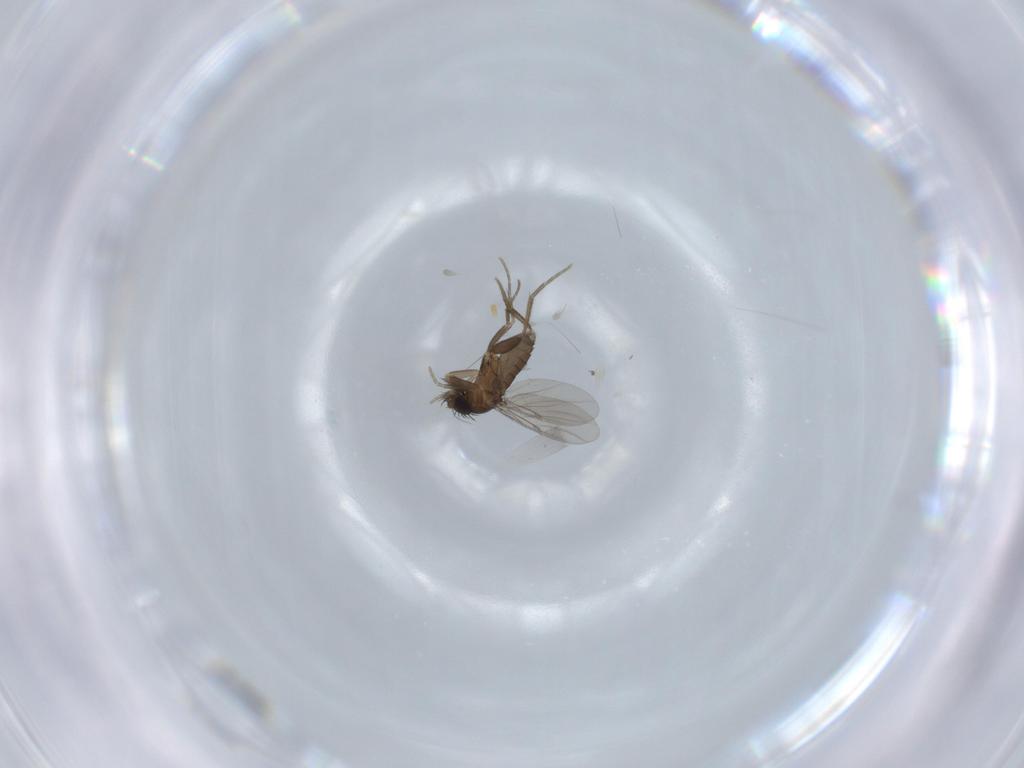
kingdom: Animalia
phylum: Arthropoda
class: Insecta
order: Diptera
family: Phoridae
